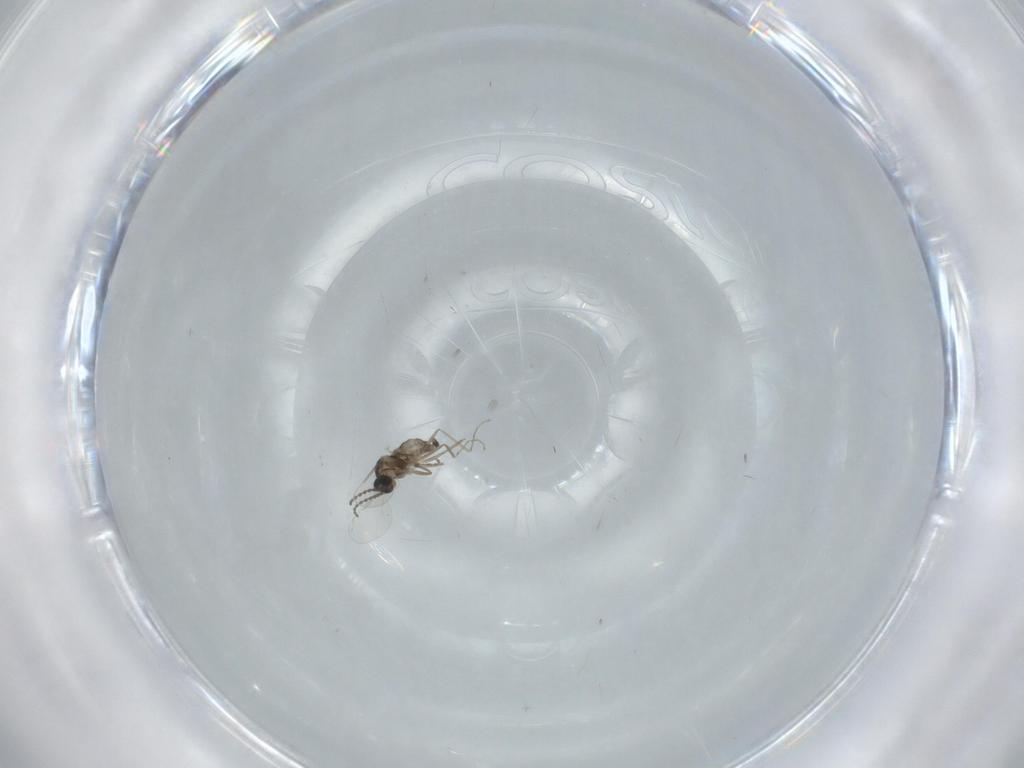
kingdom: Animalia
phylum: Arthropoda
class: Insecta
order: Diptera
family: Cecidomyiidae
